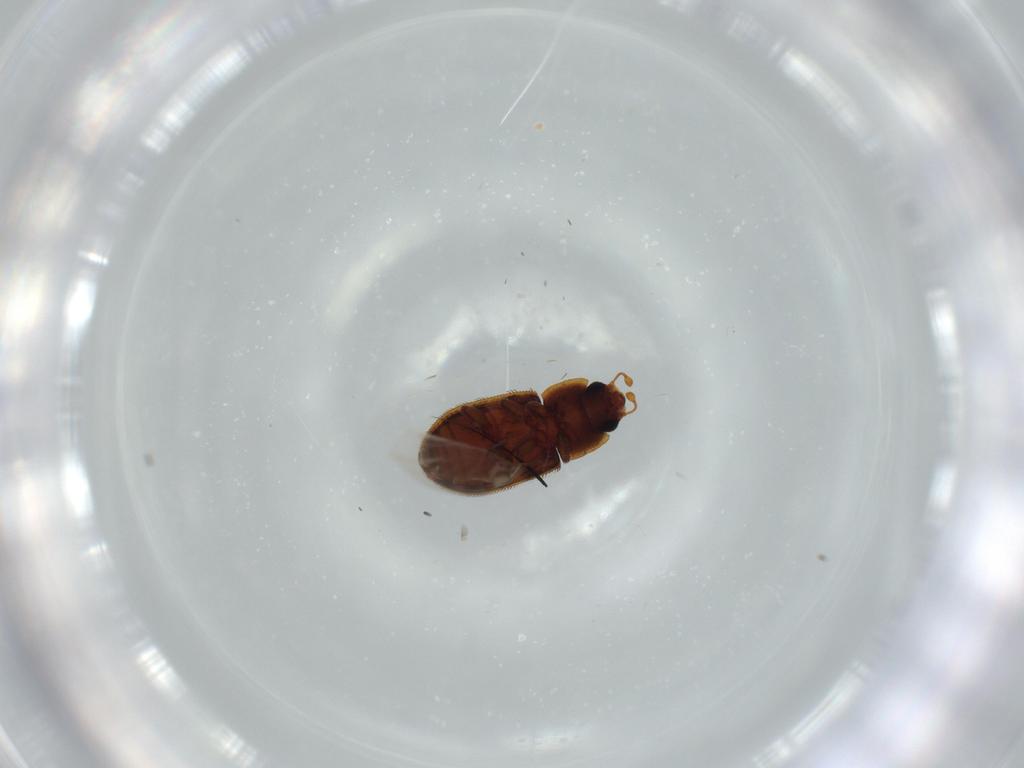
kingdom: Animalia
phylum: Arthropoda
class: Insecta
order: Coleoptera
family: Zopheridae
